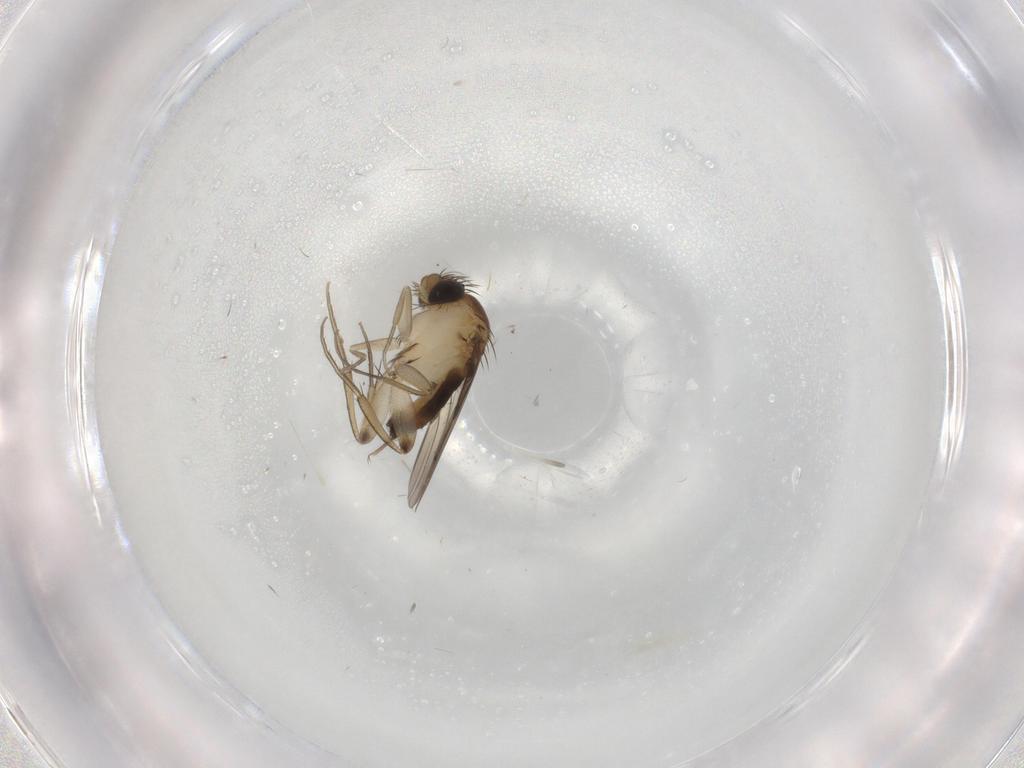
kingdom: Animalia
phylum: Arthropoda
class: Insecta
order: Diptera
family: Phoridae
